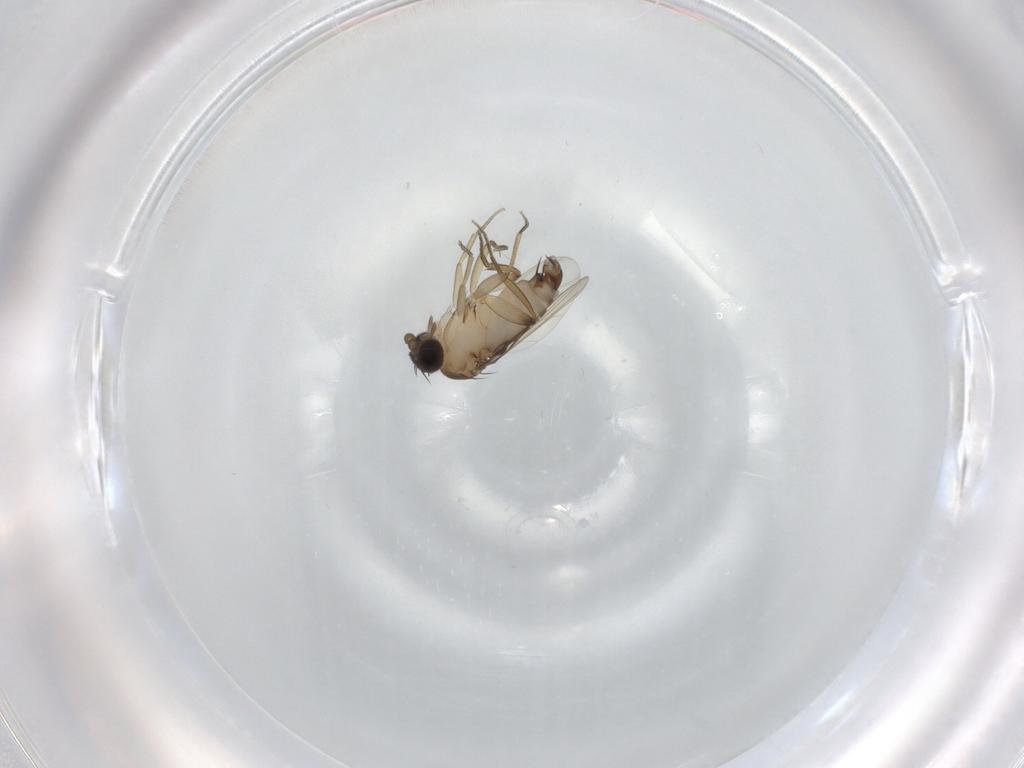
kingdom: Animalia
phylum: Arthropoda
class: Insecta
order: Diptera
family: Phoridae
